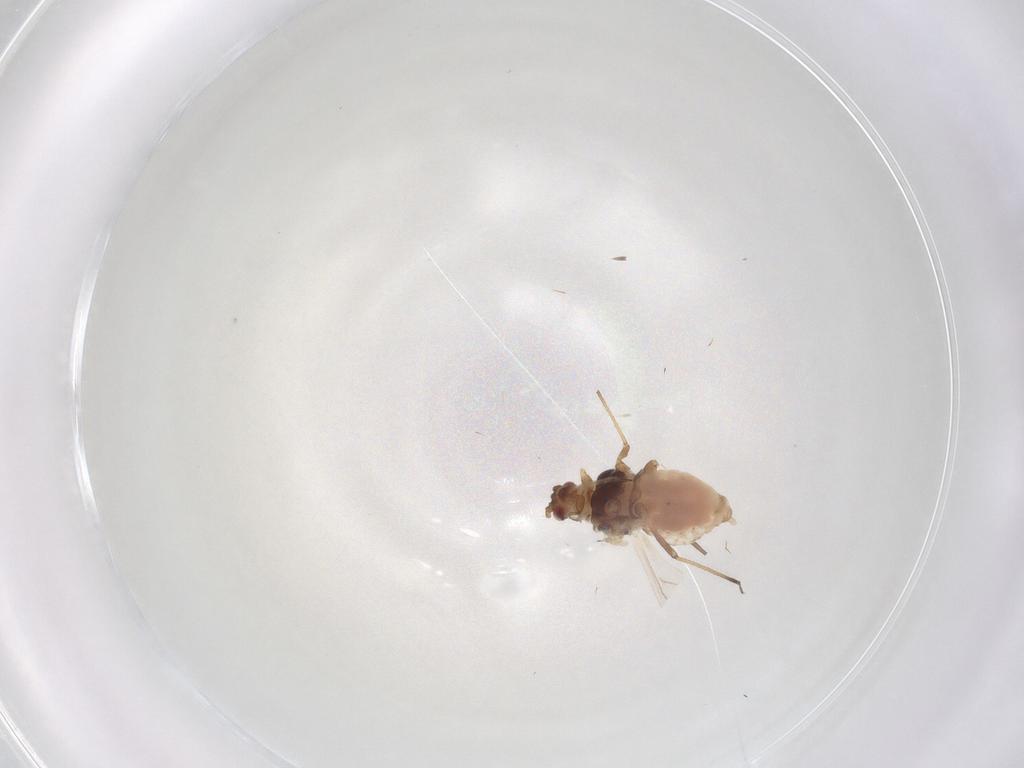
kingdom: Animalia
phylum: Arthropoda
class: Insecta
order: Hemiptera
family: Aphididae
